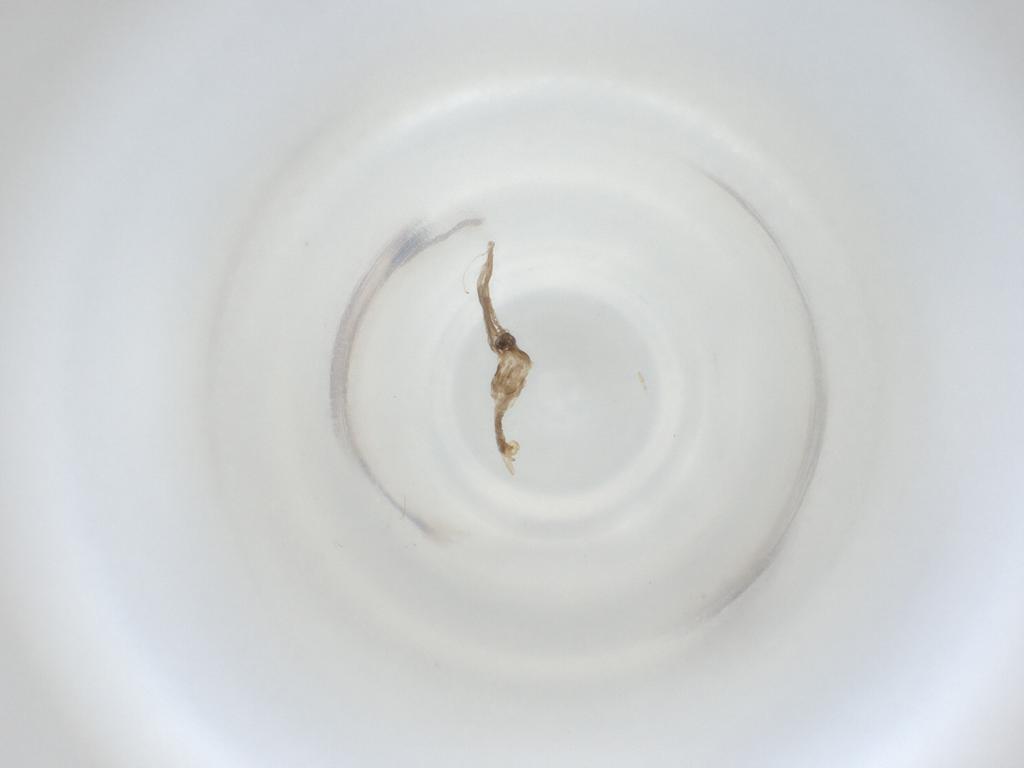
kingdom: Animalia
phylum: Arthropoda
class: Insecta
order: Diptera
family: Cecidomyiidae
